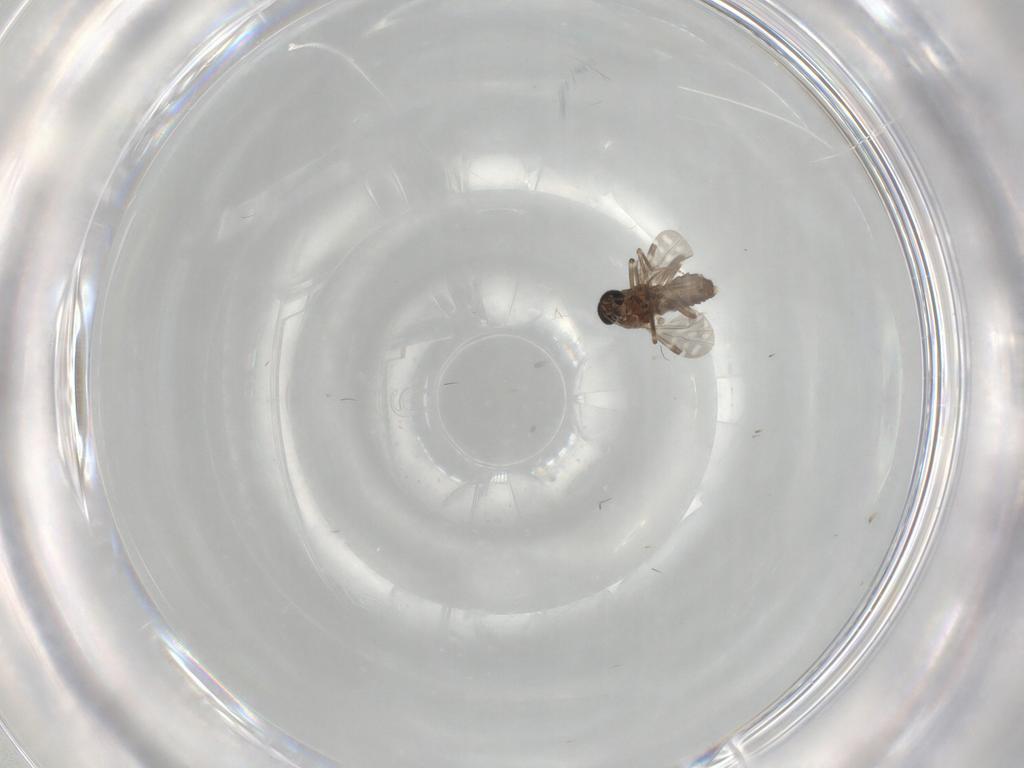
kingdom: Animalia
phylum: Arthropoda
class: Insecta
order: Diptera
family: Ceratopogonidae
